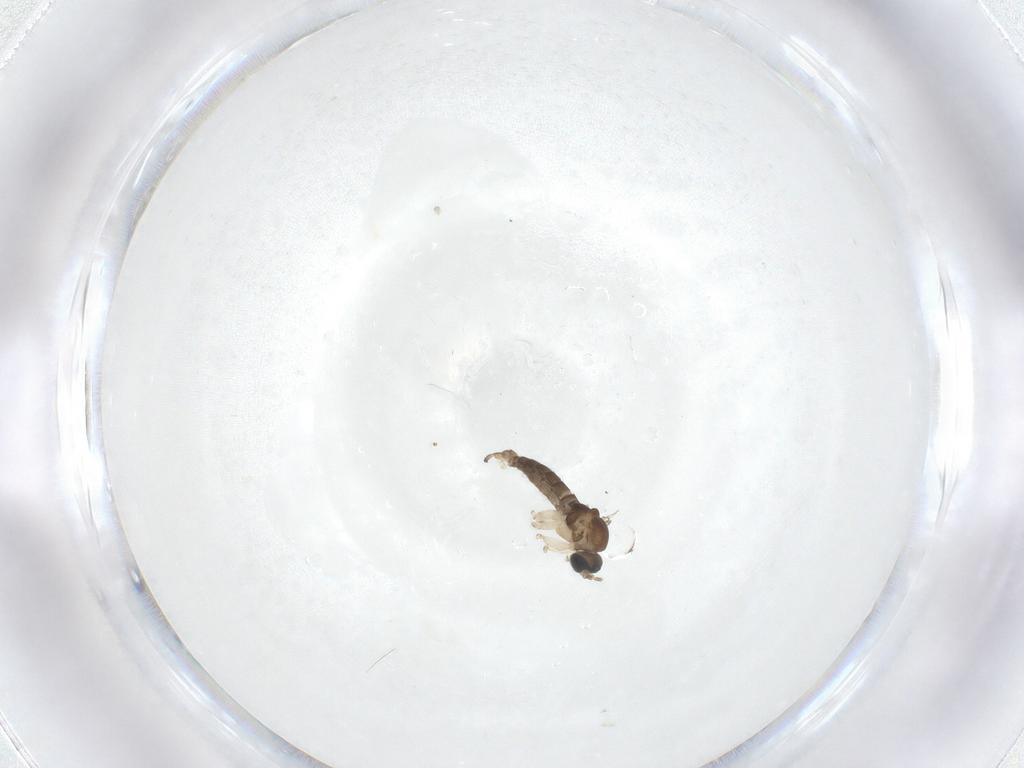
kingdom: Animalia
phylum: Arthropoda
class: Insecta
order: Diptera
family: Sciaridae
